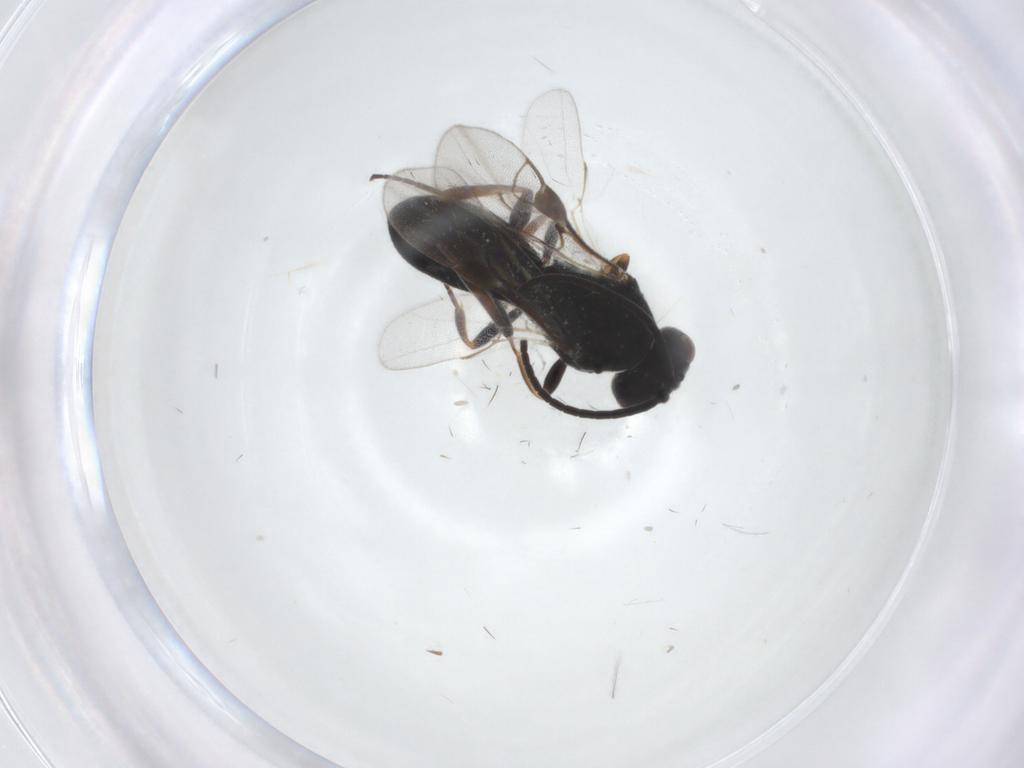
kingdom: Animalia
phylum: Arthropoda
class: Insecta
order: Hymenoptera
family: Braconidae
